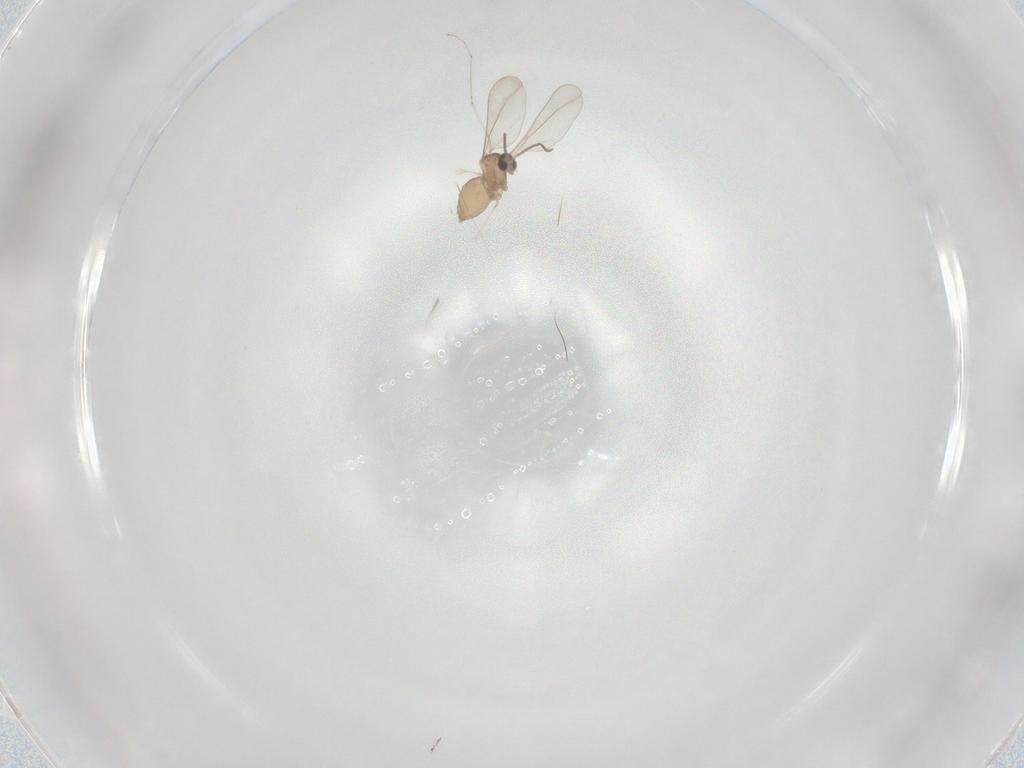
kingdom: Animalia
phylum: Arthropoda
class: Insecta
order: Diptera
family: Cecidomyiidae
